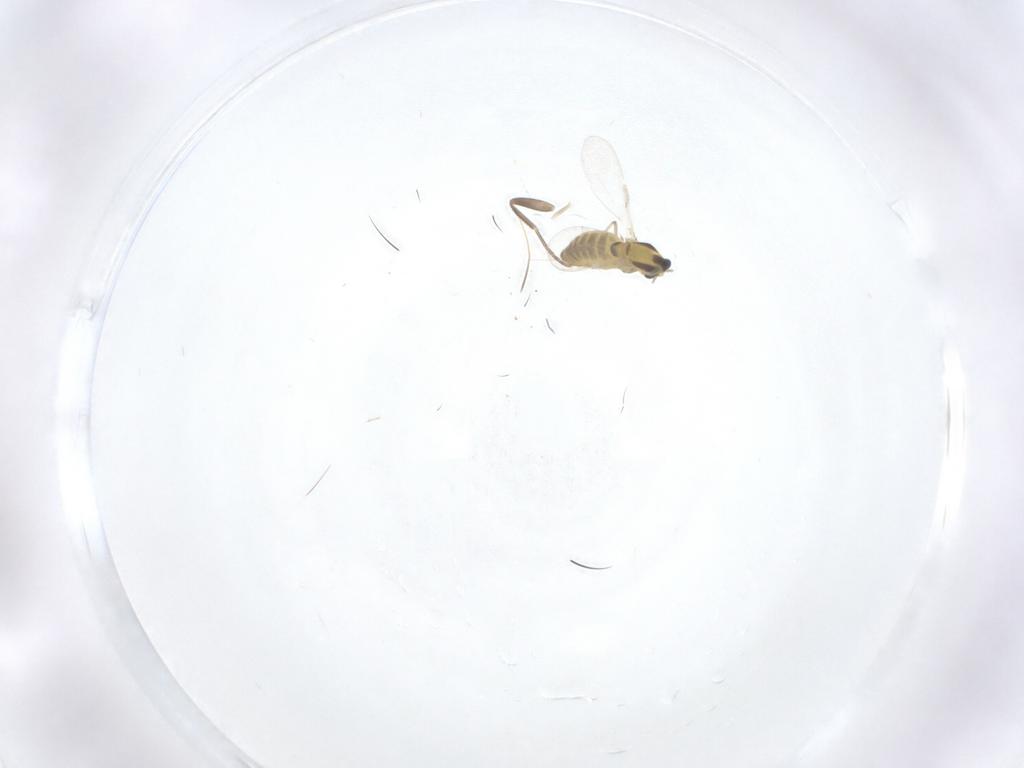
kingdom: Animalia
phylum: Arthropoda
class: Insecta
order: Diptera
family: Chironomidae
